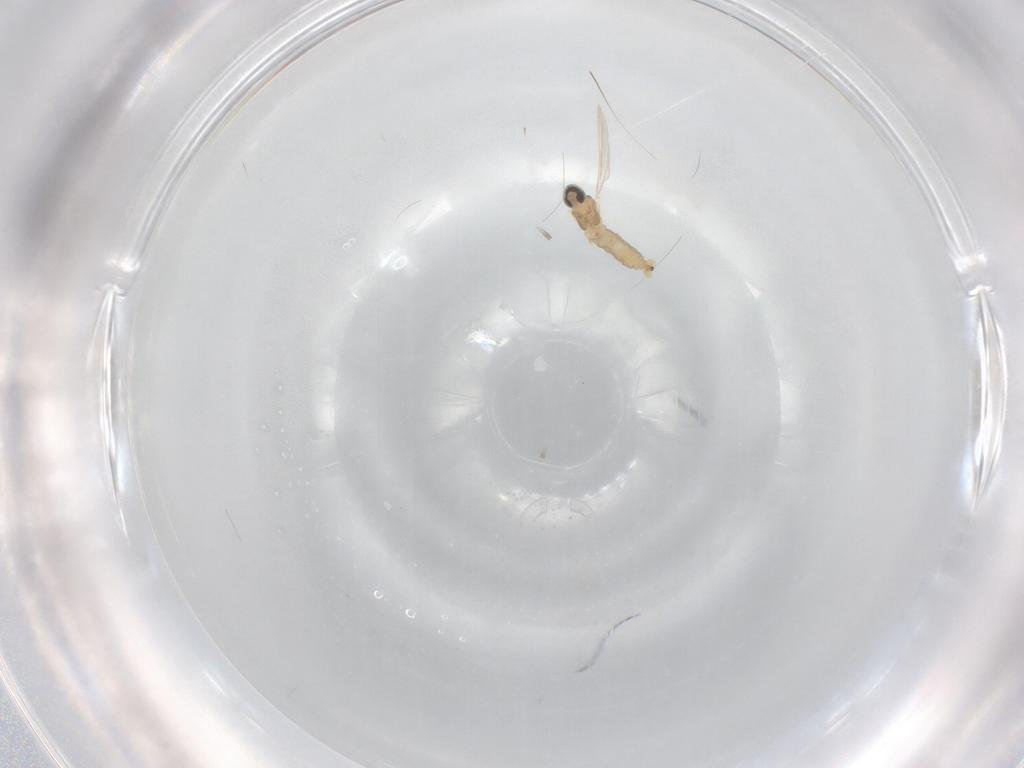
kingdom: Animalia
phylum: Arthropoda
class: Insecta
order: Diptera
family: Cecidomyiidae
